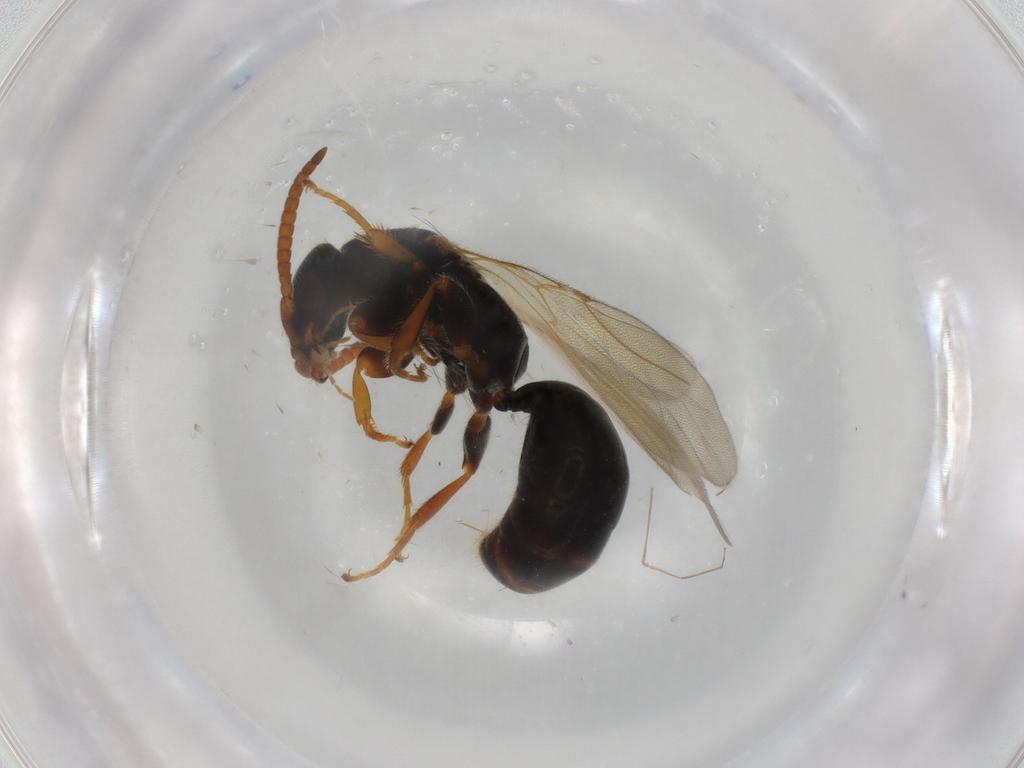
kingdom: Animalia
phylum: Arthropoda
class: Insecta
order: Hymenoptera
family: Bethylidae
